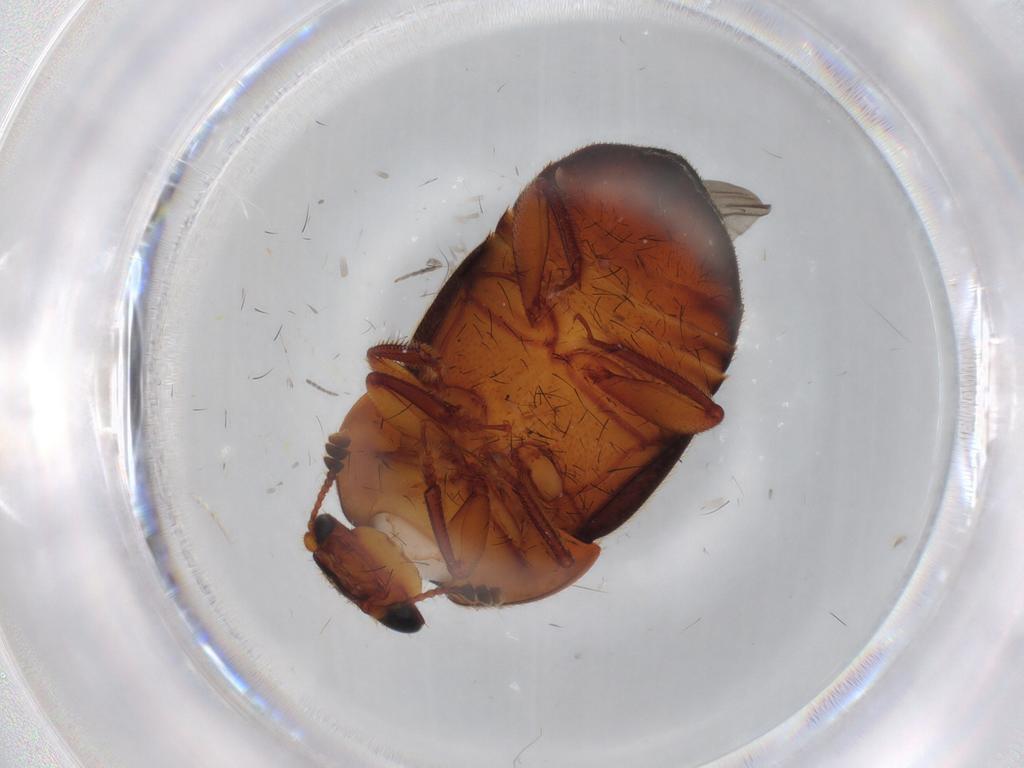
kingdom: Animalia
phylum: Arthropoda
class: Insecta
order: Coleoptera
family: Nitidulidae
